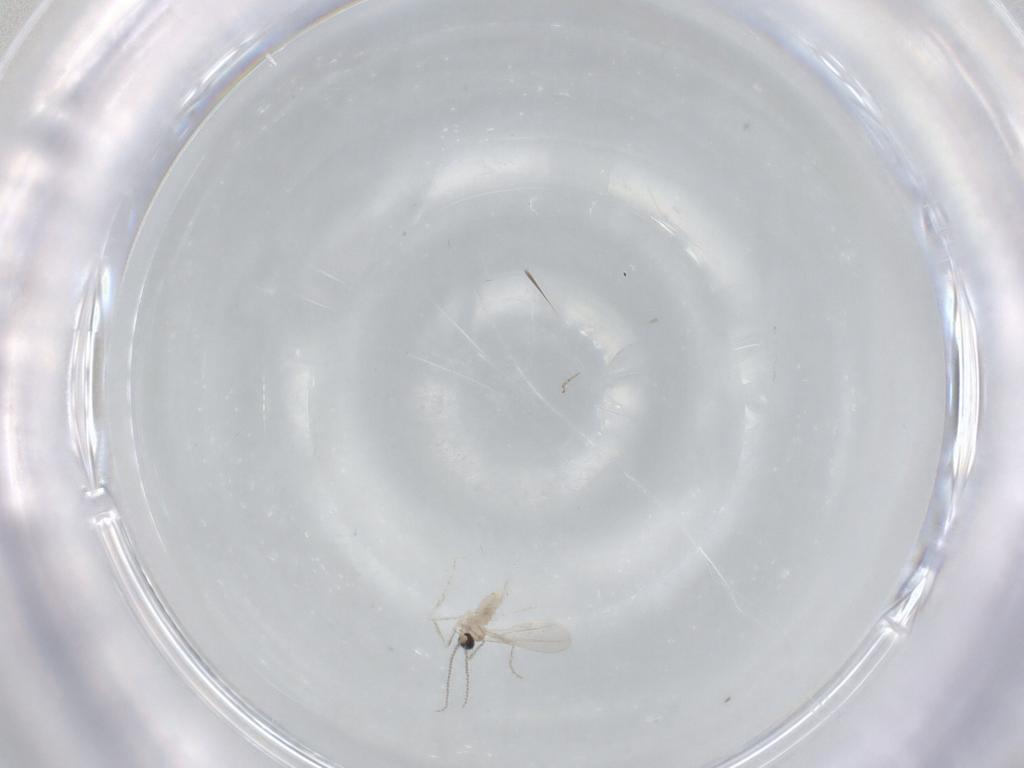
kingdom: Animalia
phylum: Arthropoda
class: Insecta
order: Diptera
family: Cecidomyiidae
